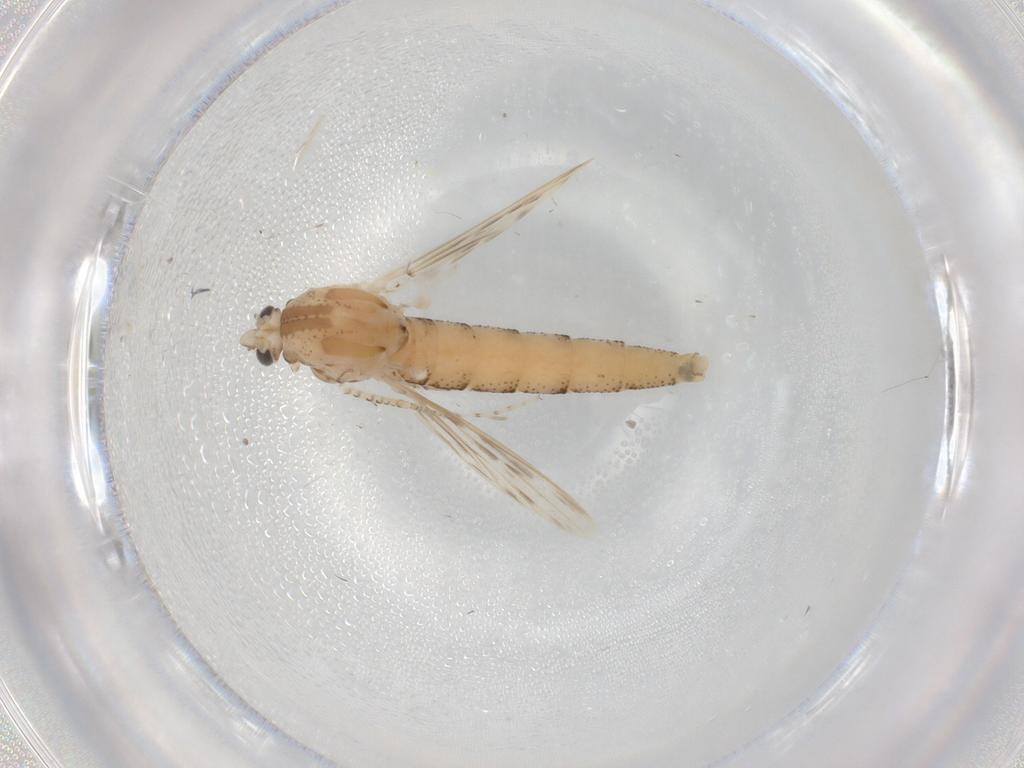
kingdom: Animalia
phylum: Arthropoda
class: Insecta
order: Diptera
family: Chaoboridae
